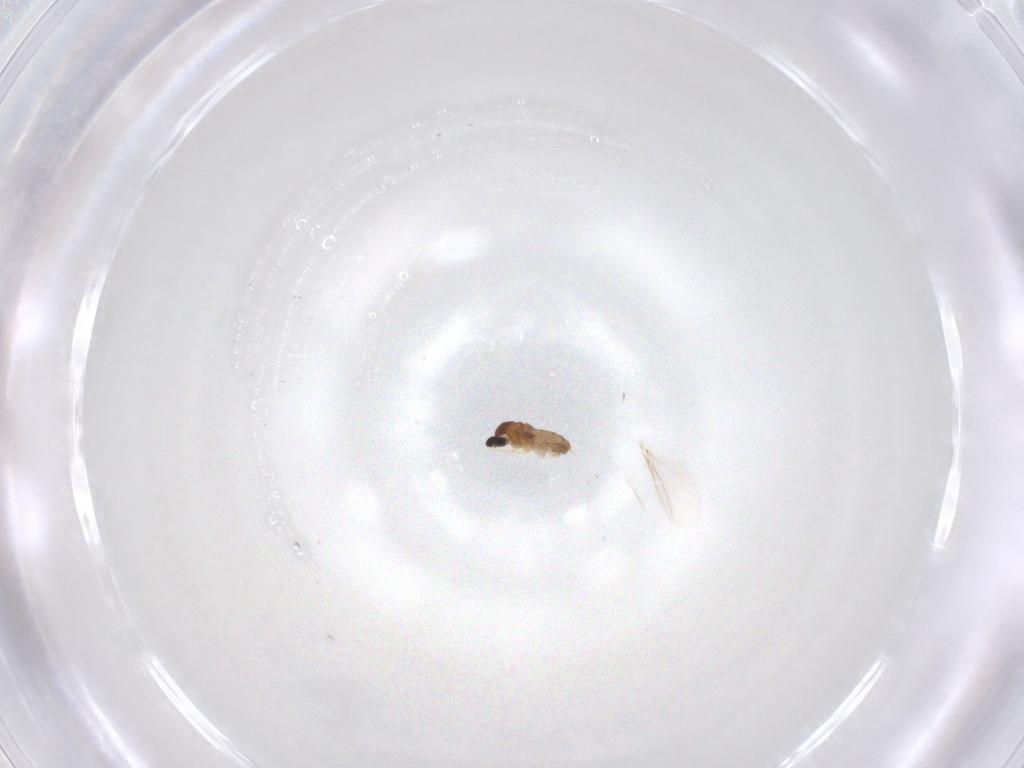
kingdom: Animalia
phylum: Arthropoda
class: Insecta
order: Diptera
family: Cecidomyiidae
